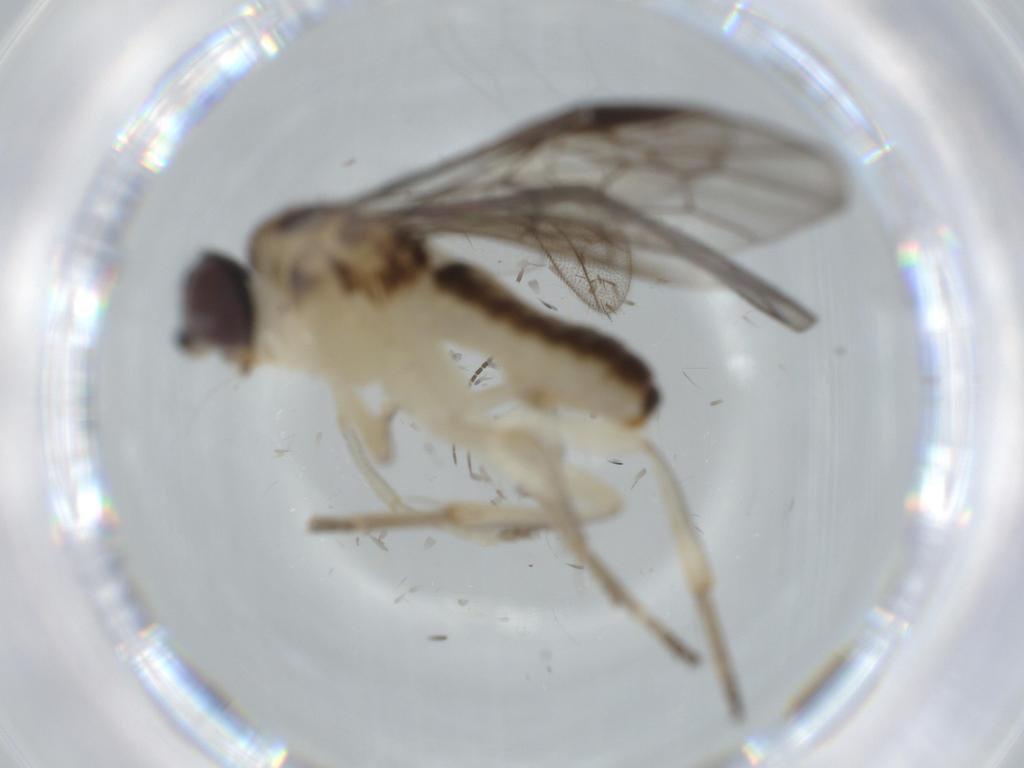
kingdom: Animalia
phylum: Arthropoda
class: Insecta
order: Hymenoptera
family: Pergidae
